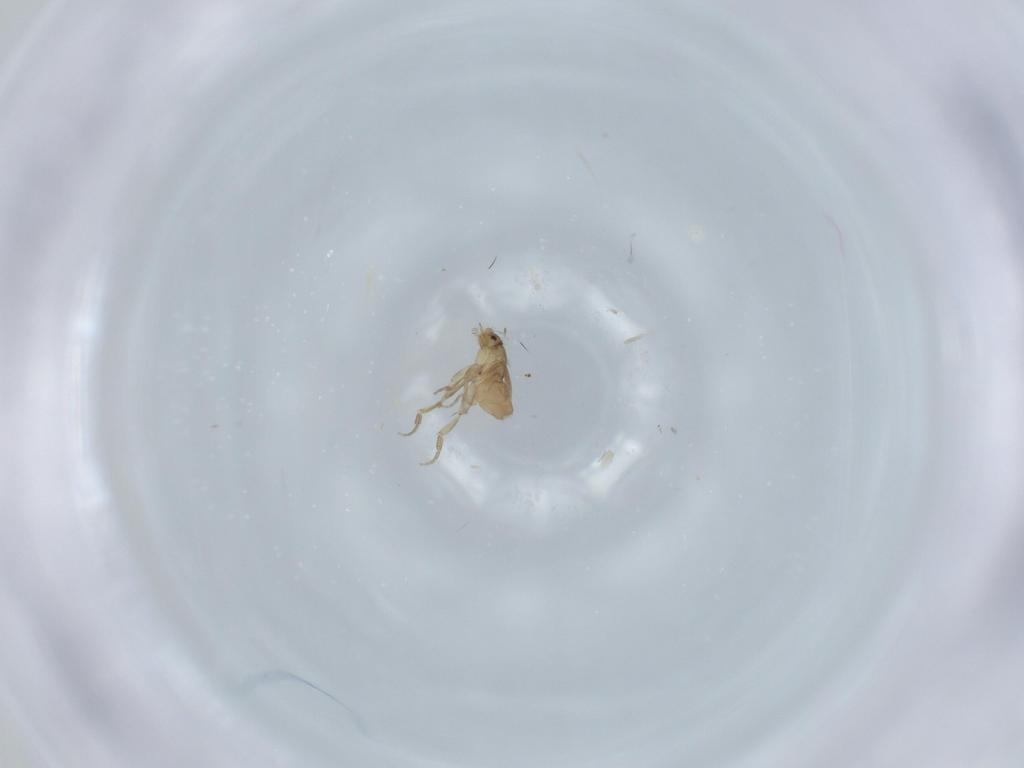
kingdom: Animalia
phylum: Arthropoda
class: Insecta
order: Diptera
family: Phoridae
